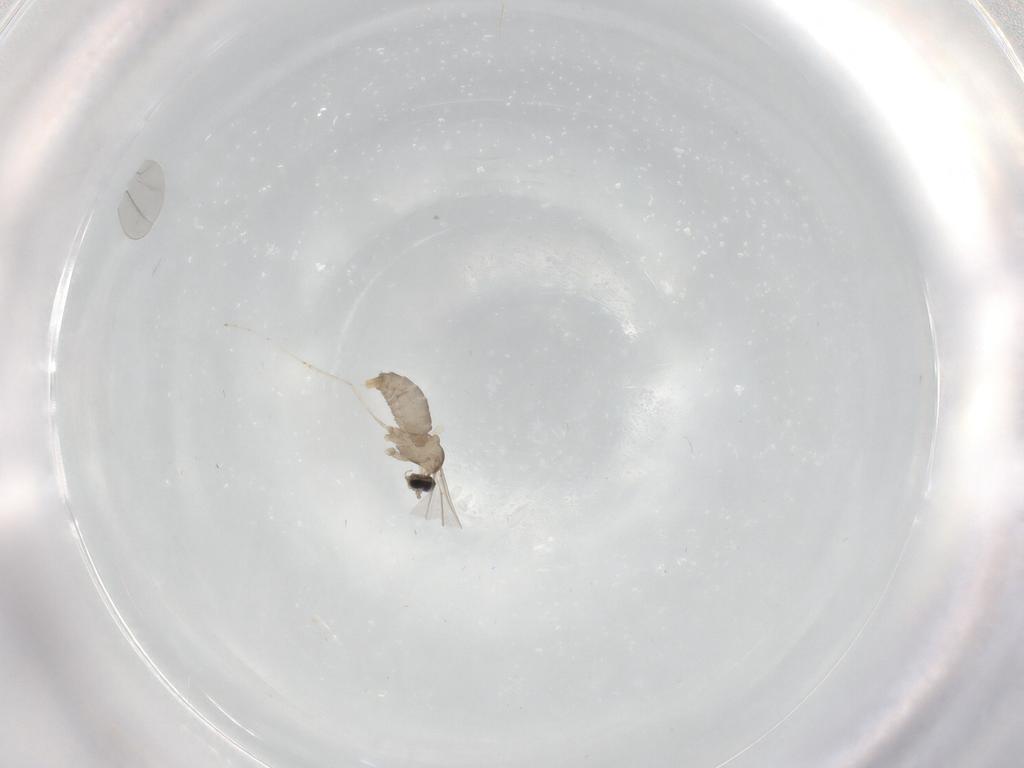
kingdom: Animalia
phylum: Arthropoda
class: Insecta
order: Diptera
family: Cecidomyiidae
